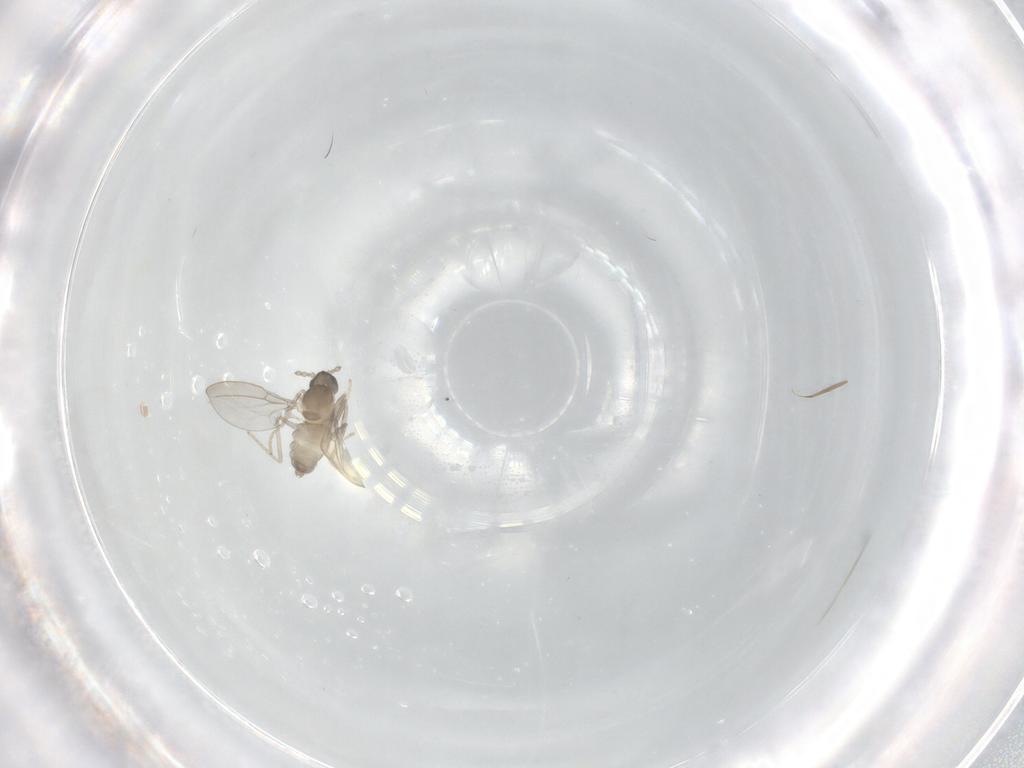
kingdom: Animalia
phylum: Arthropoda
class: Insecta
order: Diptera
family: Cecidomyiidae
